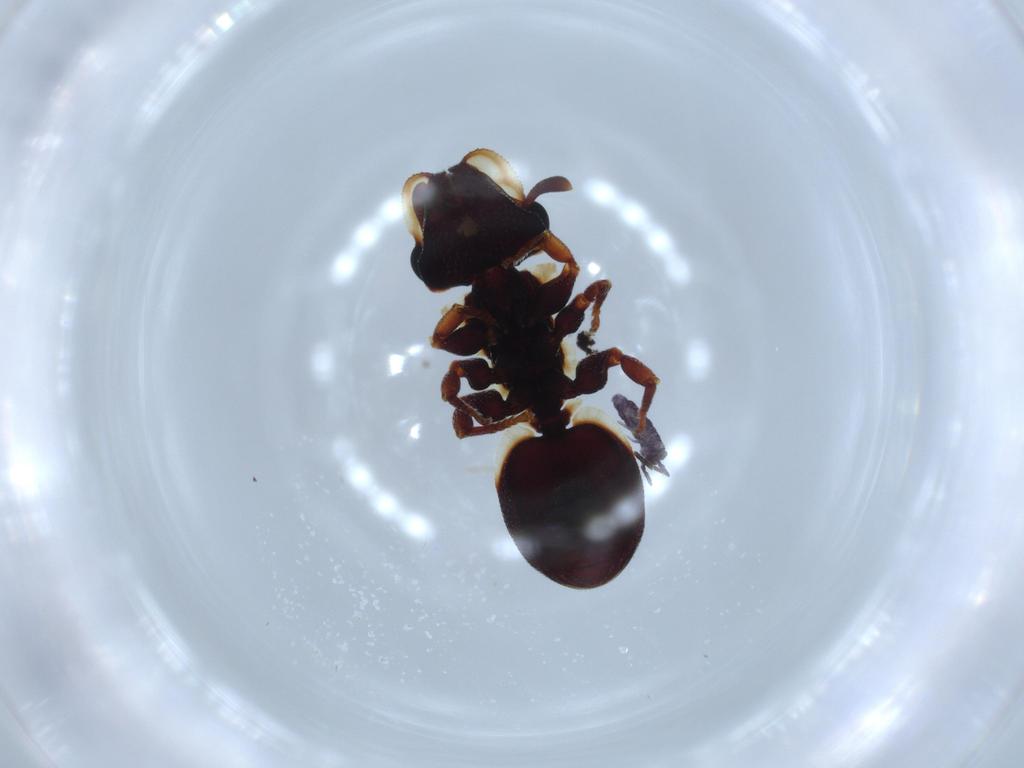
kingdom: Animalia
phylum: Arthropoda
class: Insecta
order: Hymenoptera
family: Formicidae
